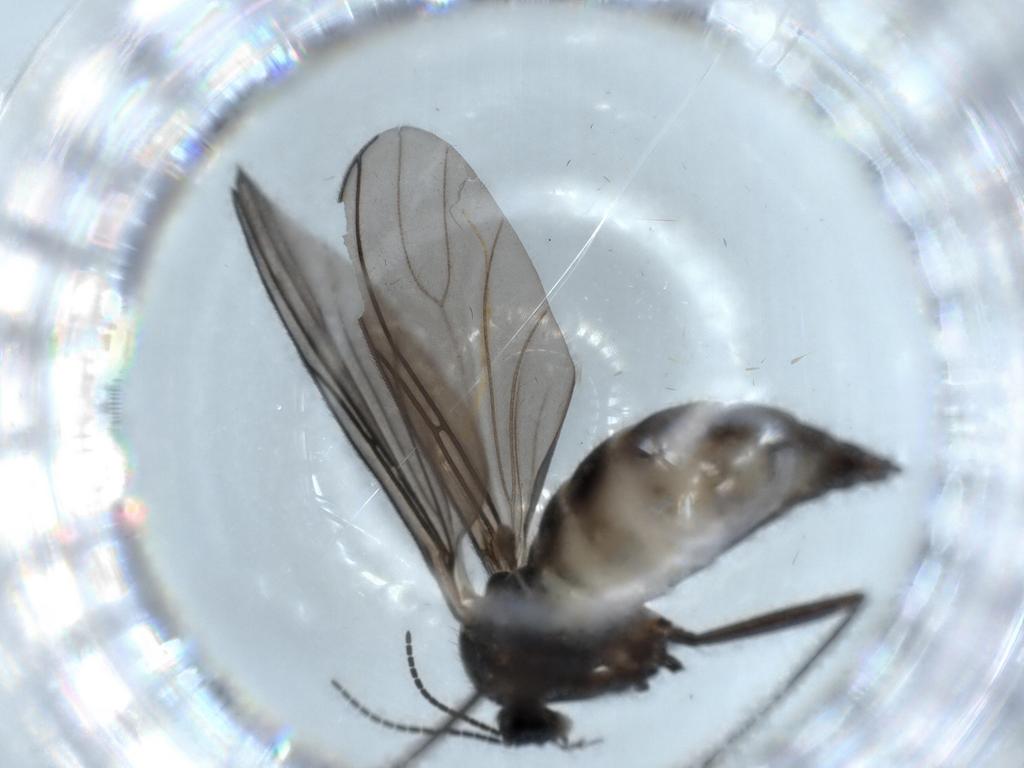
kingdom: Animalia
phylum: Arthropoda
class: Insecta
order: Diptera
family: Sciaridae
